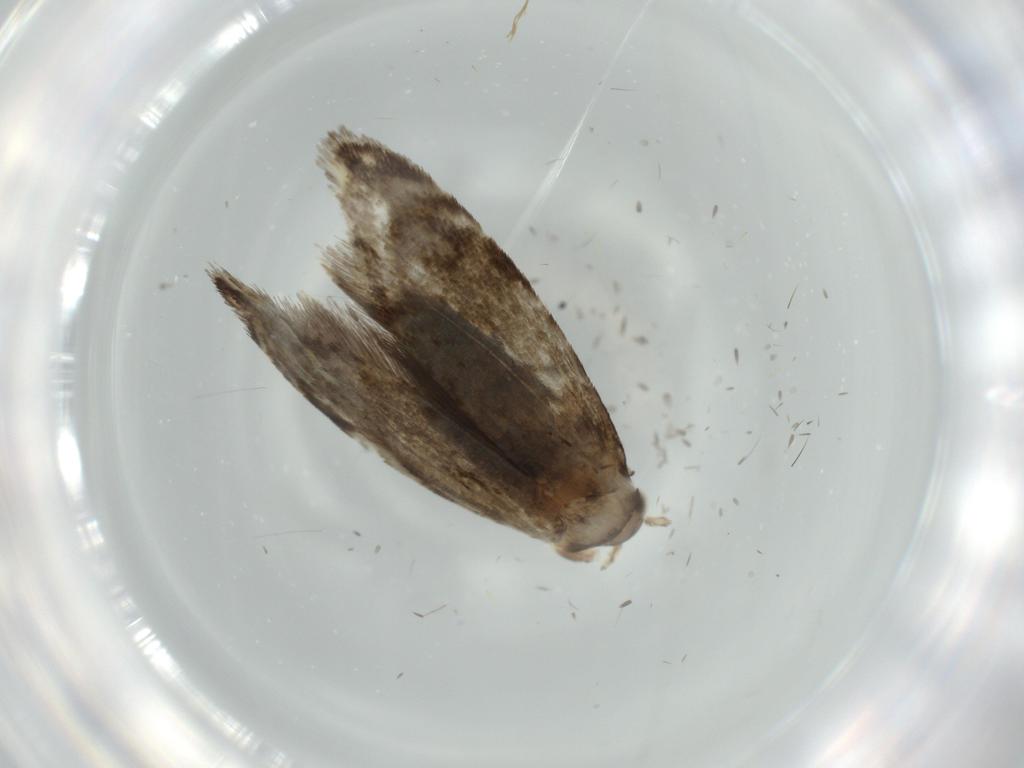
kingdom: Animalia
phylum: Arthropoda
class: Insecta
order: Lepidoptera
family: Tineidae
